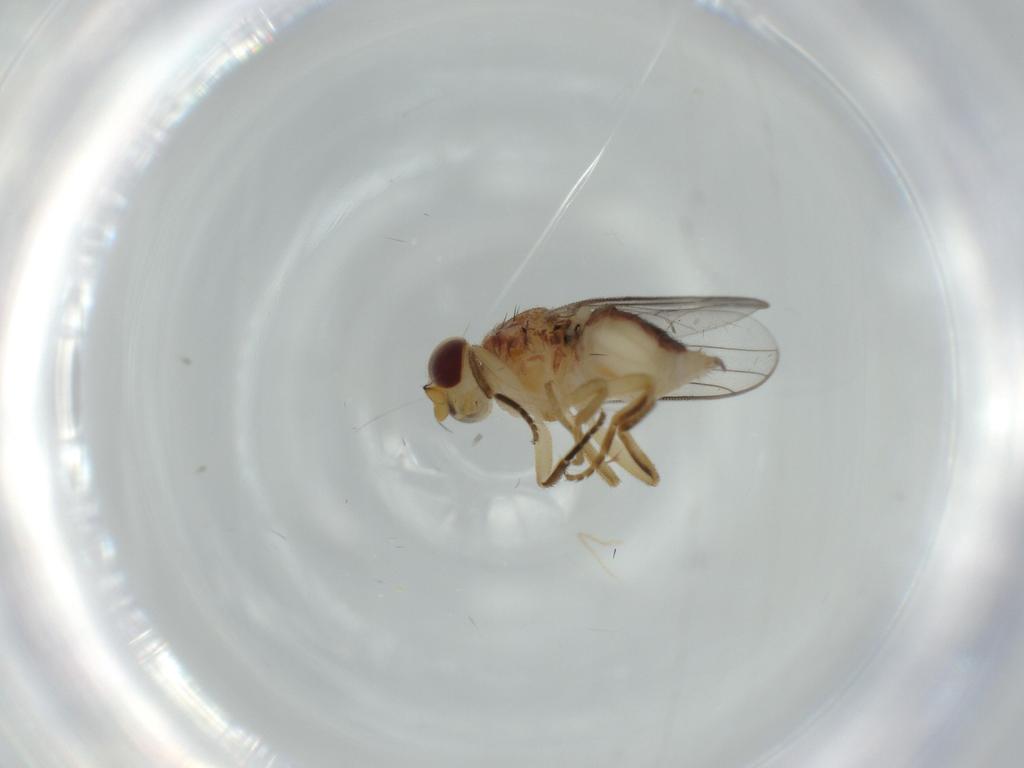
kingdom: Animalia
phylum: Arthropoda
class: Insecta
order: Diptera
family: Chloropidae
